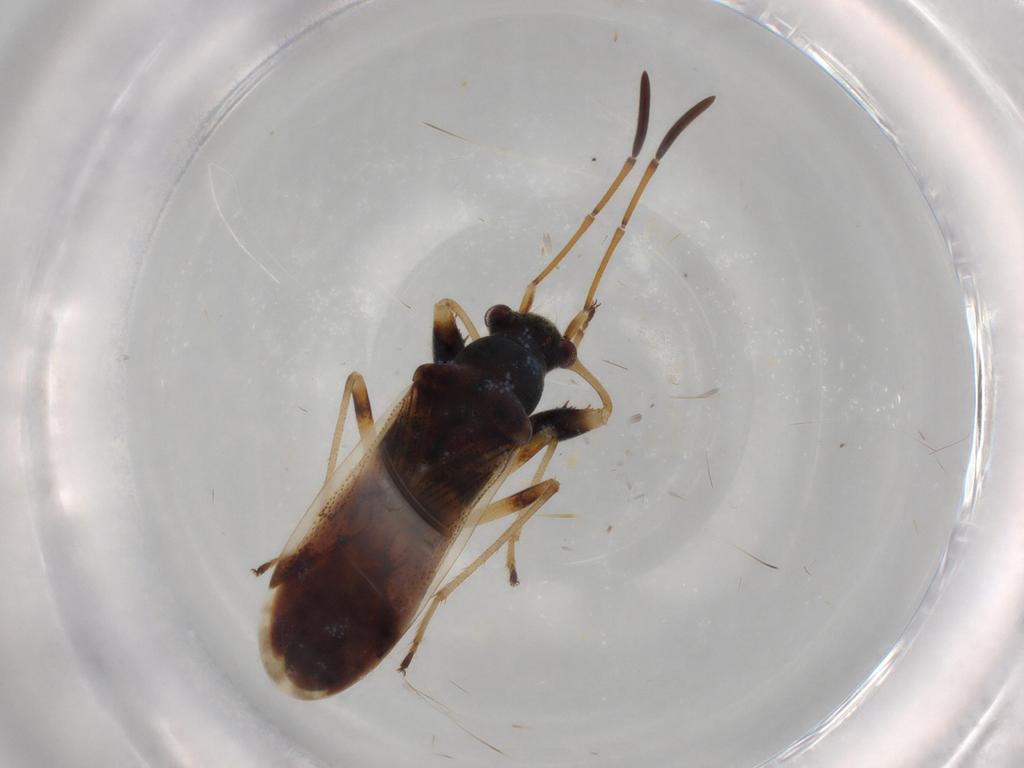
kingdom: Animalia
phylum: Arthropoda
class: Insecta
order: Hemiptera
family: Rhyparochromidae
